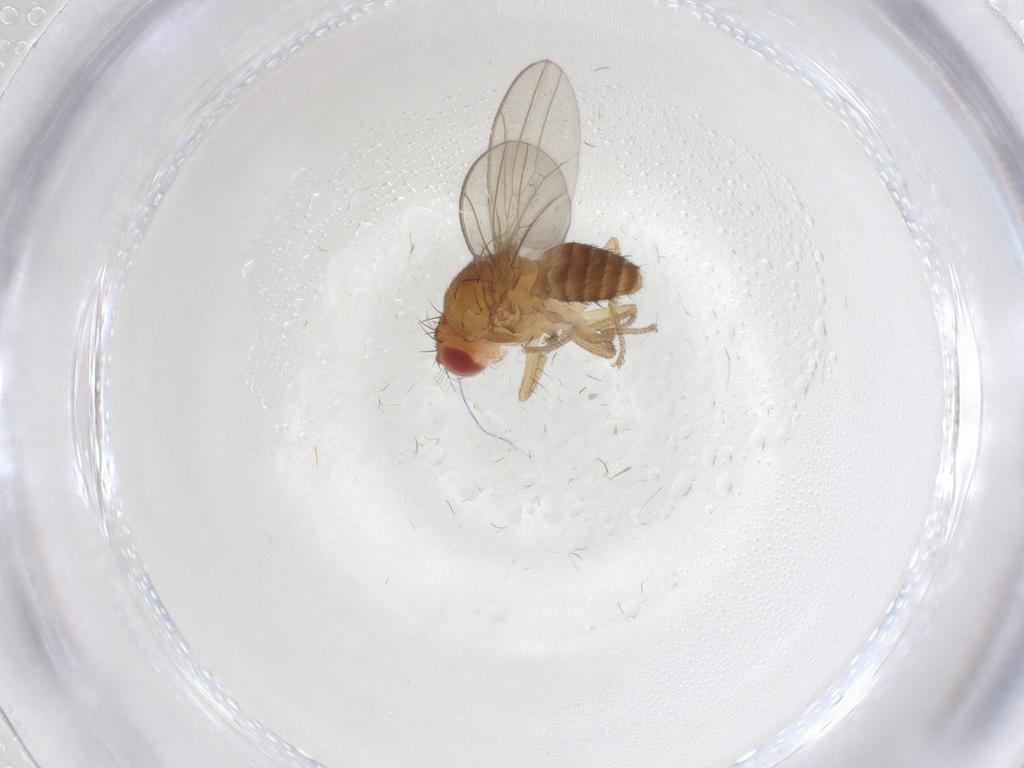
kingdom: Animalia
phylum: Arthropoda
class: Insecta
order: Diptera
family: Drosophilidae
